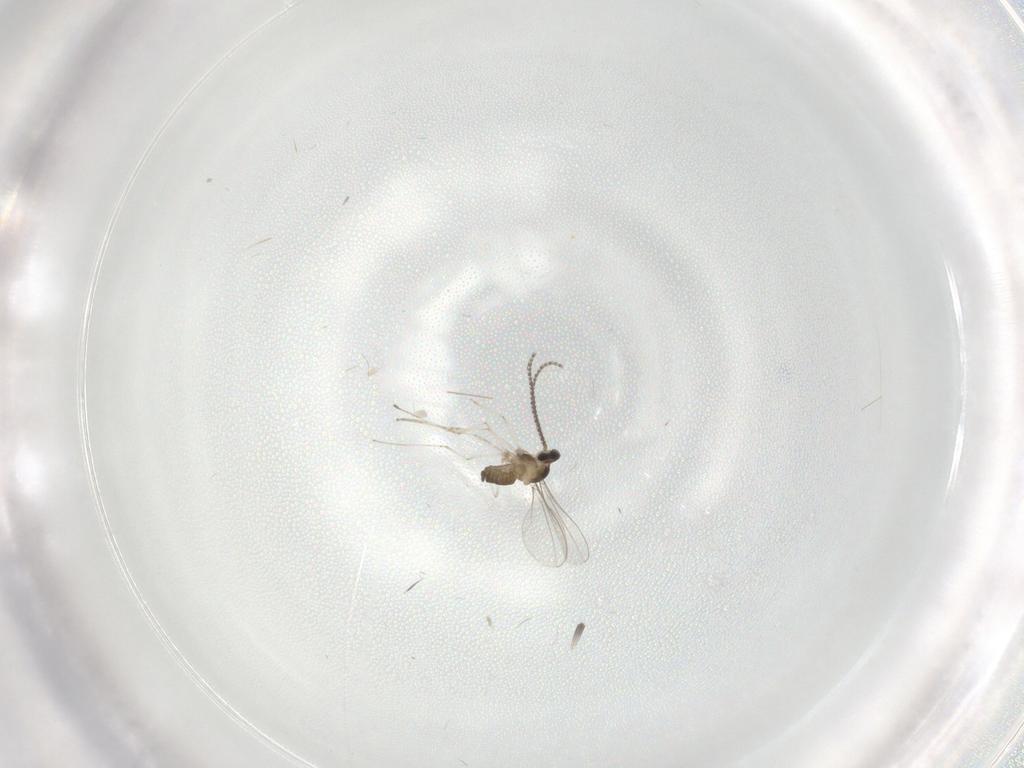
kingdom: Animalia
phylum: Arthropoda
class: Insecta
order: Diptera
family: Cecidomyiidae
